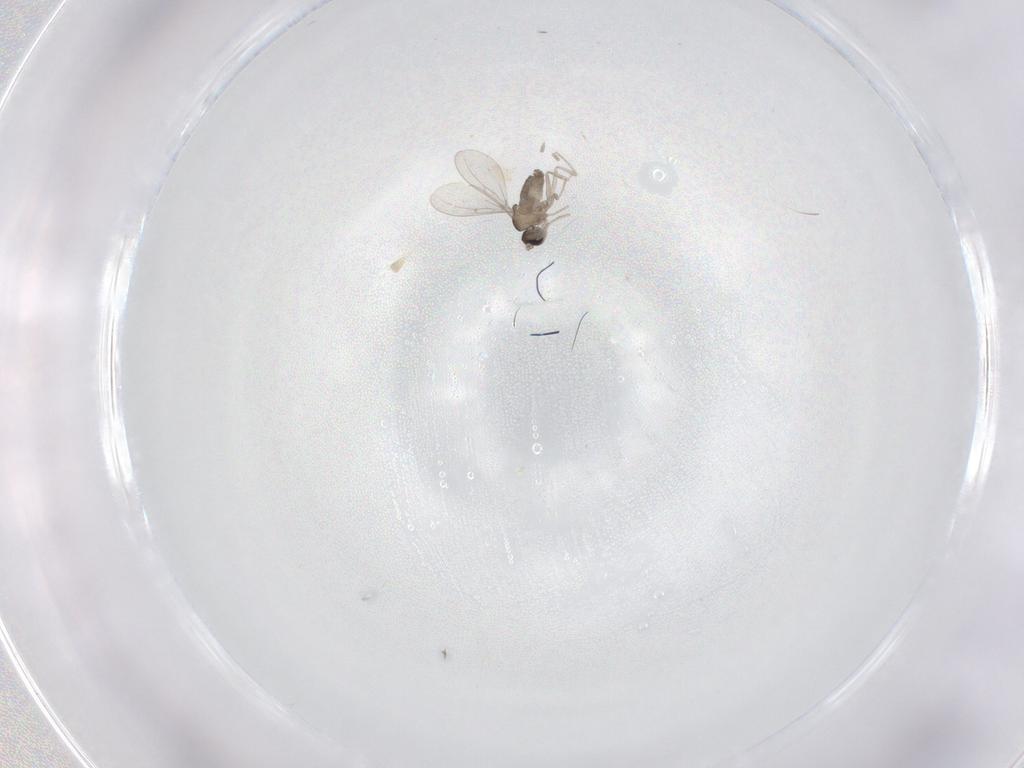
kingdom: Animalia
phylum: Arthropoda
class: Insecta
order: Diptera
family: Cecidomyiidae
